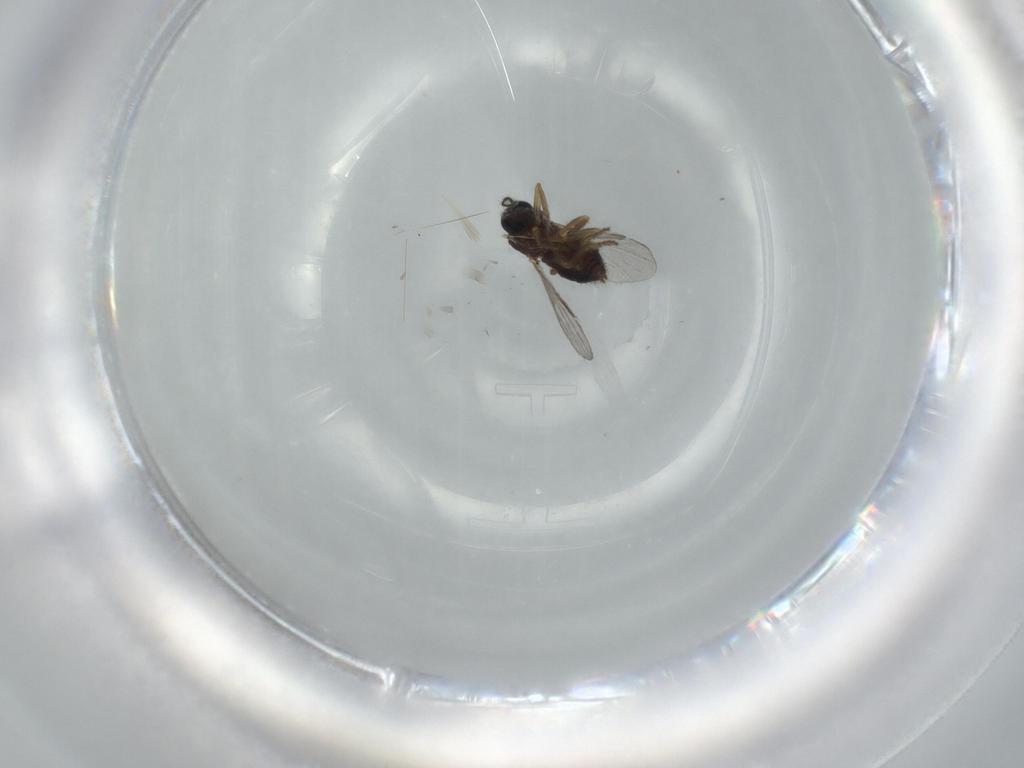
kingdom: Animalia
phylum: Arthropoda
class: Insecta
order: Diptera
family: Ceratopogonidae
